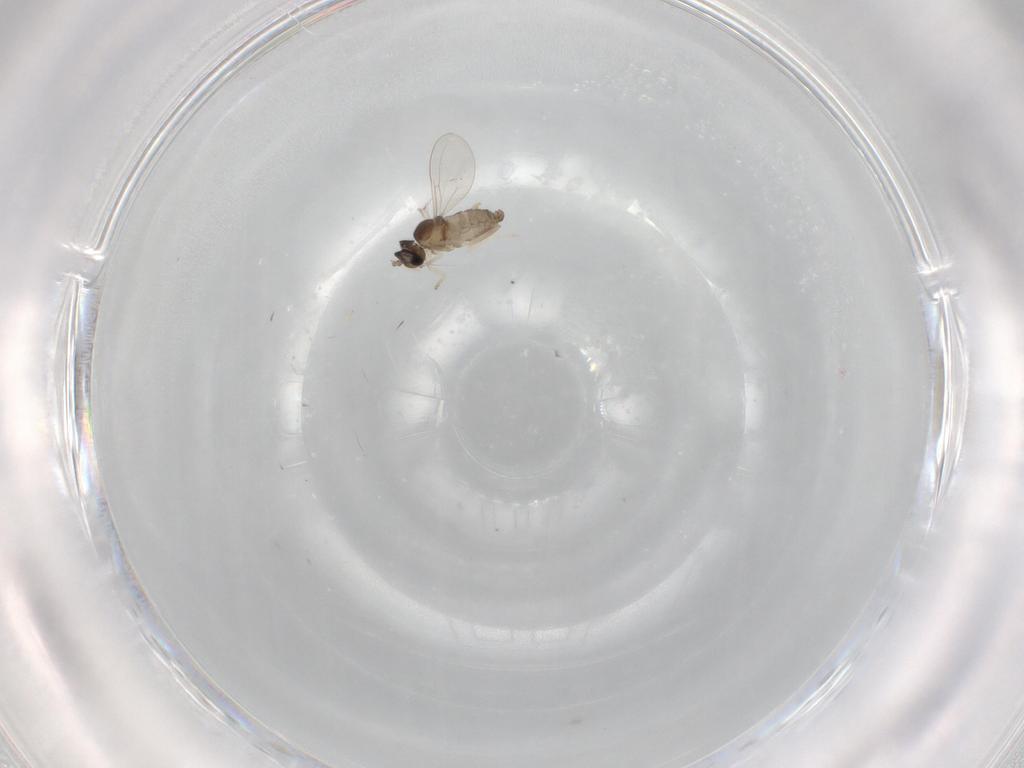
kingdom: Animalia
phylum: Arthropoda
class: Insecta
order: Diptera
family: Cecidomyiidae
